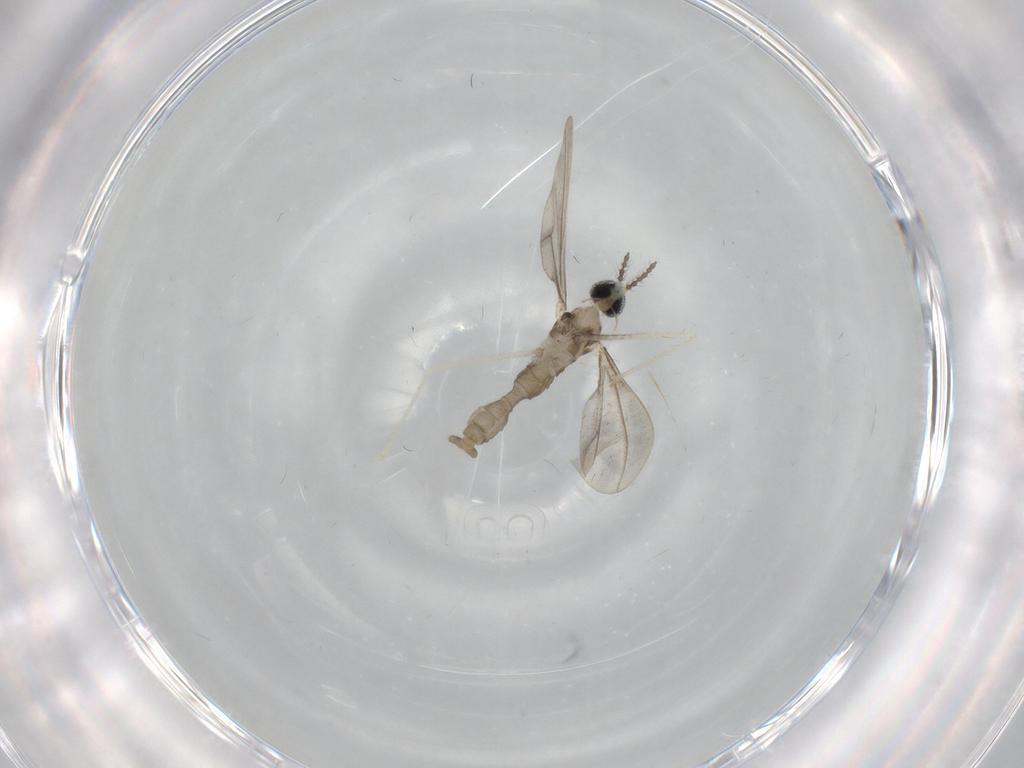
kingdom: Animalia
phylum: Arthropoda
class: Insecta
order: Diptera
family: Cecidomyiidae
